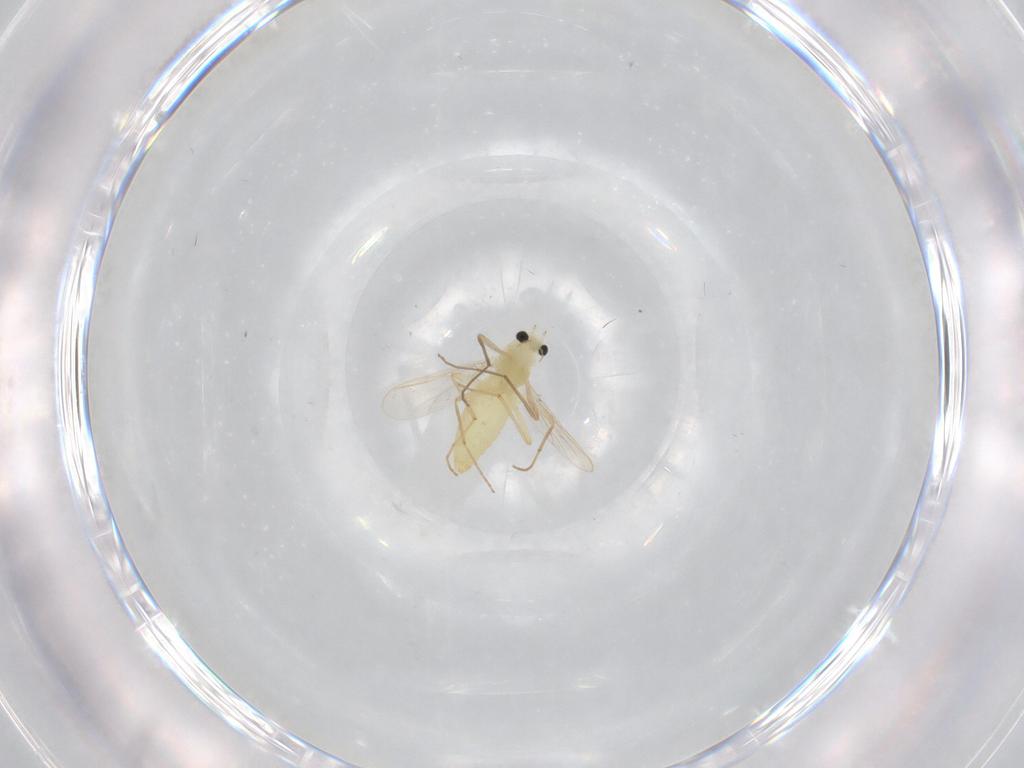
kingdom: Animalia
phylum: Arthropoda
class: Insecta
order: Diptera
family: Chironomidae
